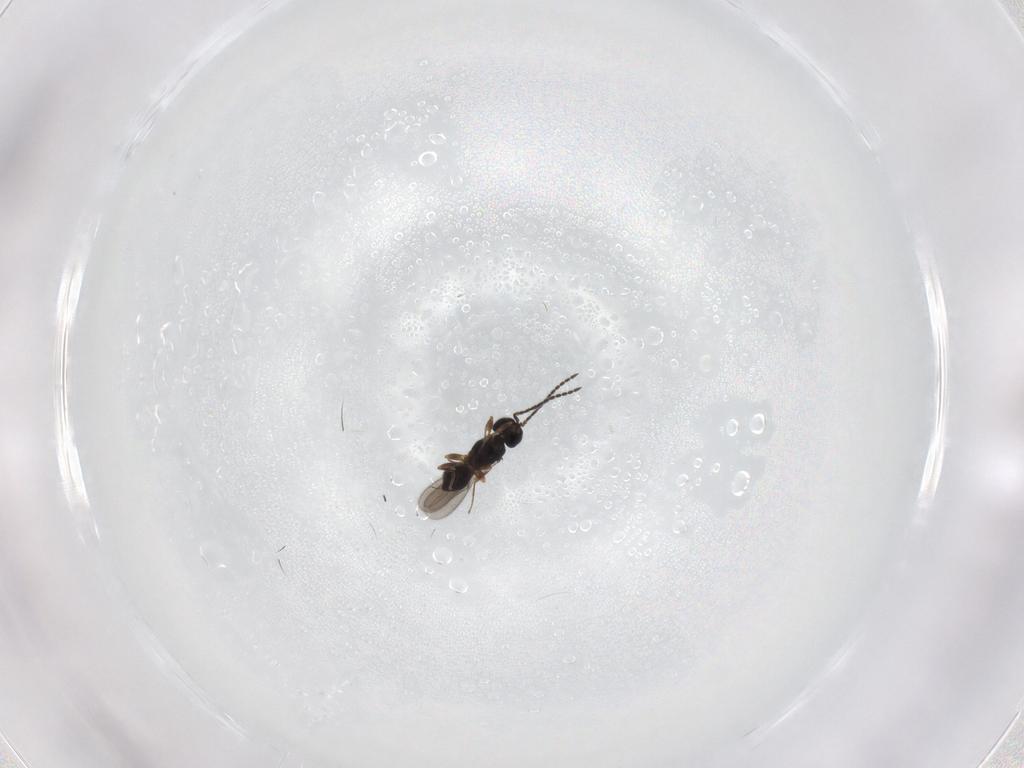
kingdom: Animalia
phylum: Arthropoda
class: Insecta
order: Hymenoptera
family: Scelionidae
